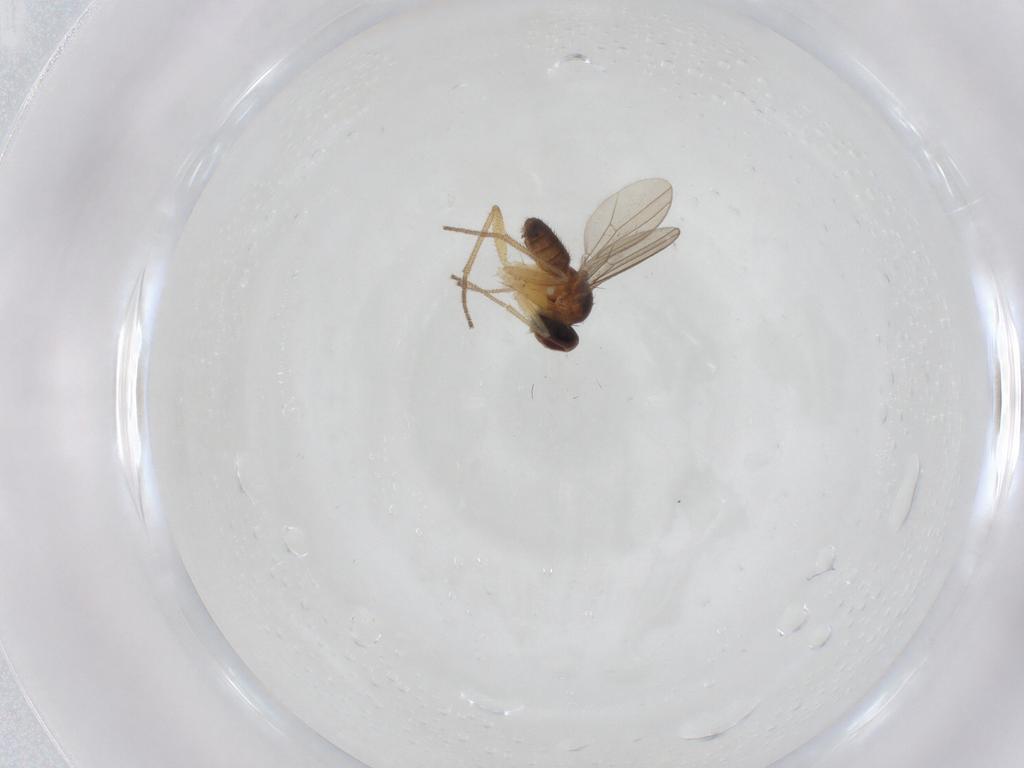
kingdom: Animalia
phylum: Arthropoda
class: Insecta
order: Diptera
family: Dolichopodidae
